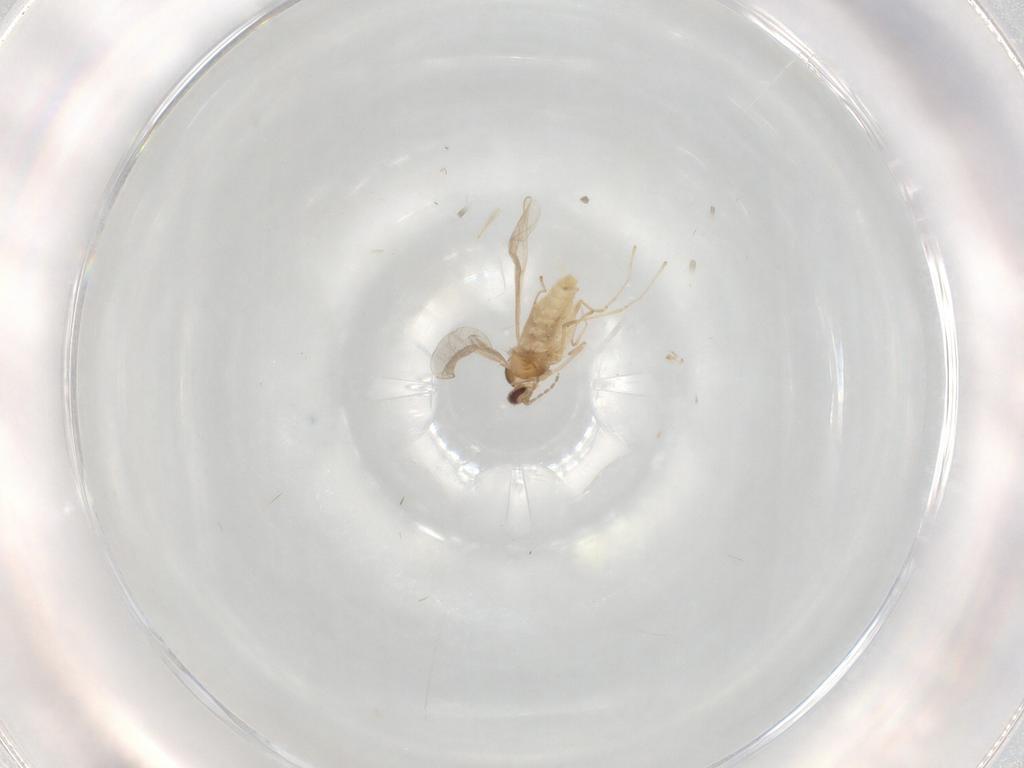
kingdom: Animalia
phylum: Arthropoda
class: Insecta
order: Diptera
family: Cecidomyiidae
